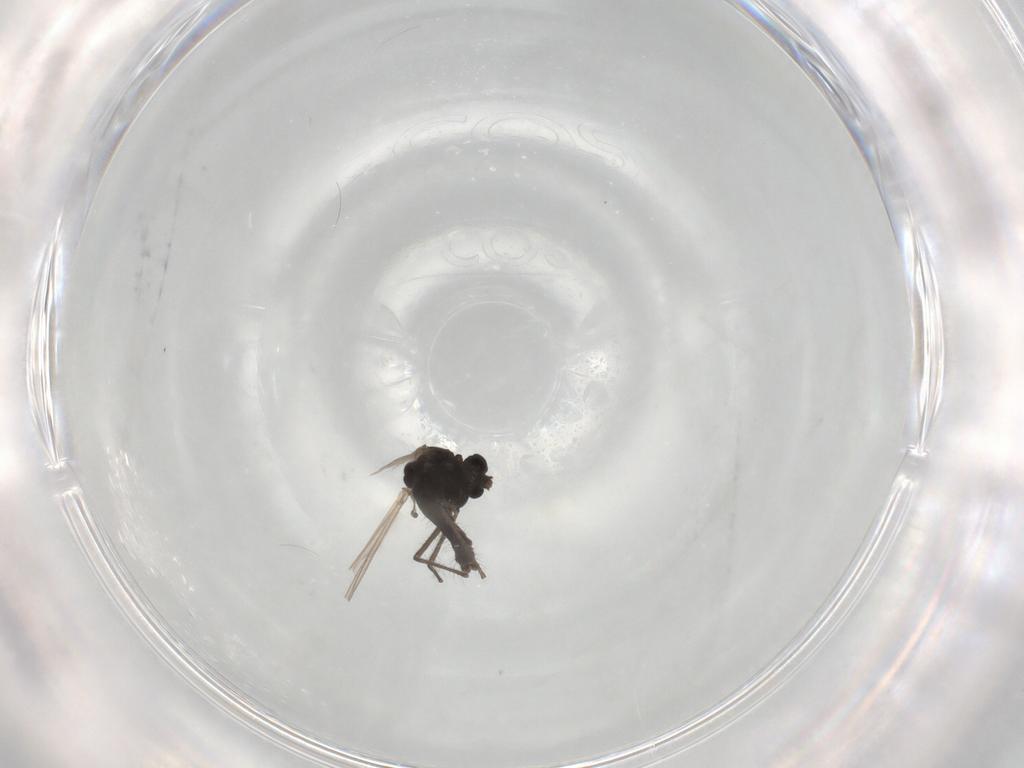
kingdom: Animalia
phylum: Arthropoda
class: Insecta
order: Diptera
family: Chironomidae
